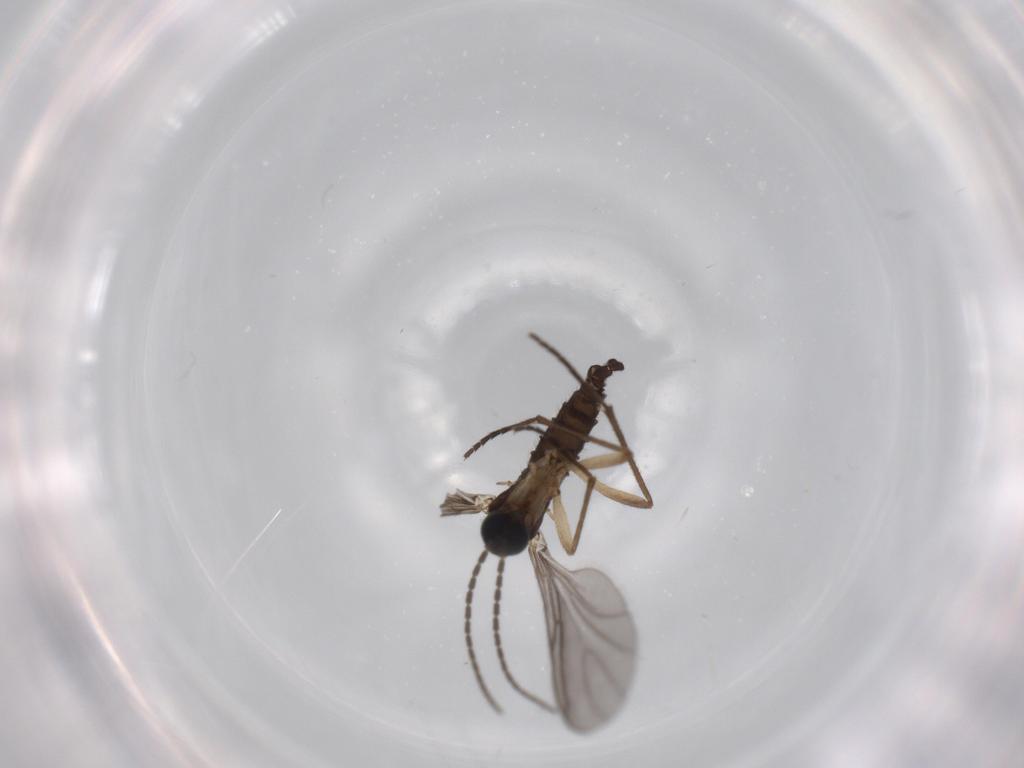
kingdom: Animalia
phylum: Arthropoda
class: Insecta
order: Diptera
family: Sciaridae
